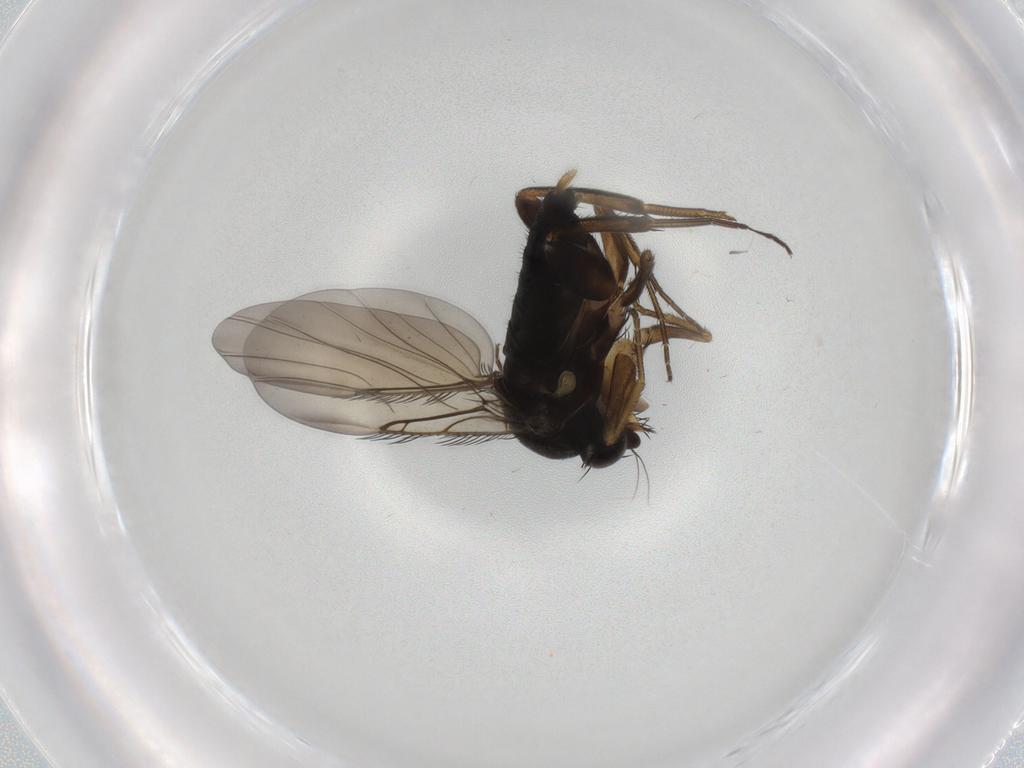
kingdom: Animalia
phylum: Arthropoda
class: Insecta
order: Diptera
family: Phoridae
